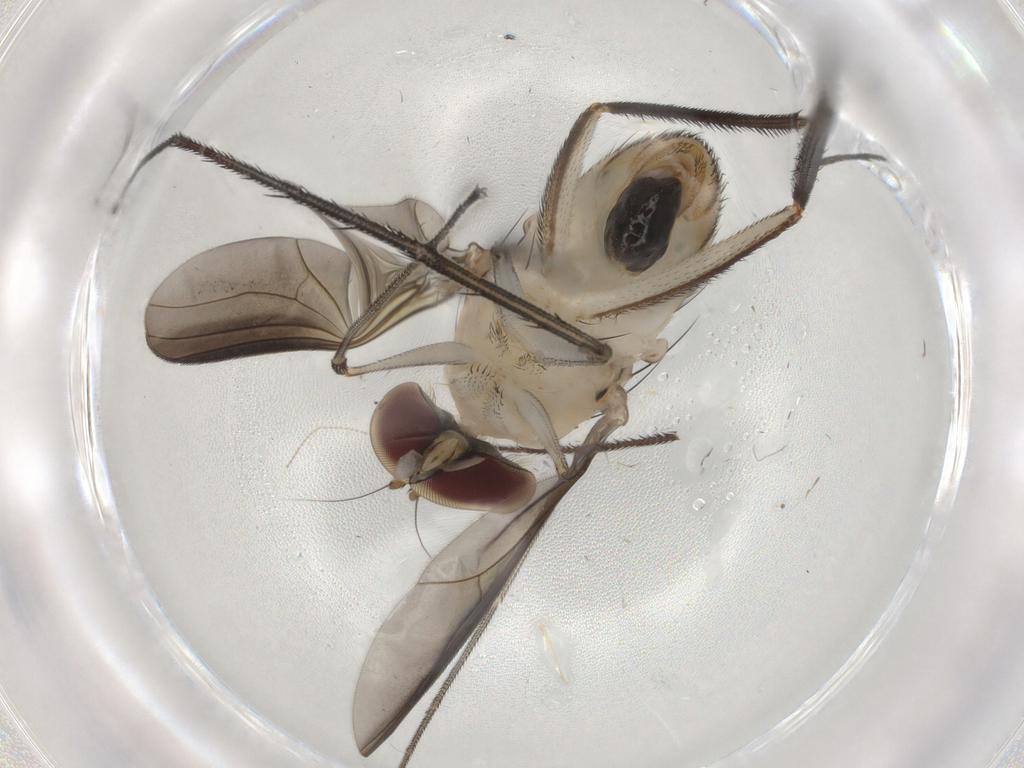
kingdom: Animalia
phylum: Arthropoda
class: Insecta
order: Diptera
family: Dolichopodidae
